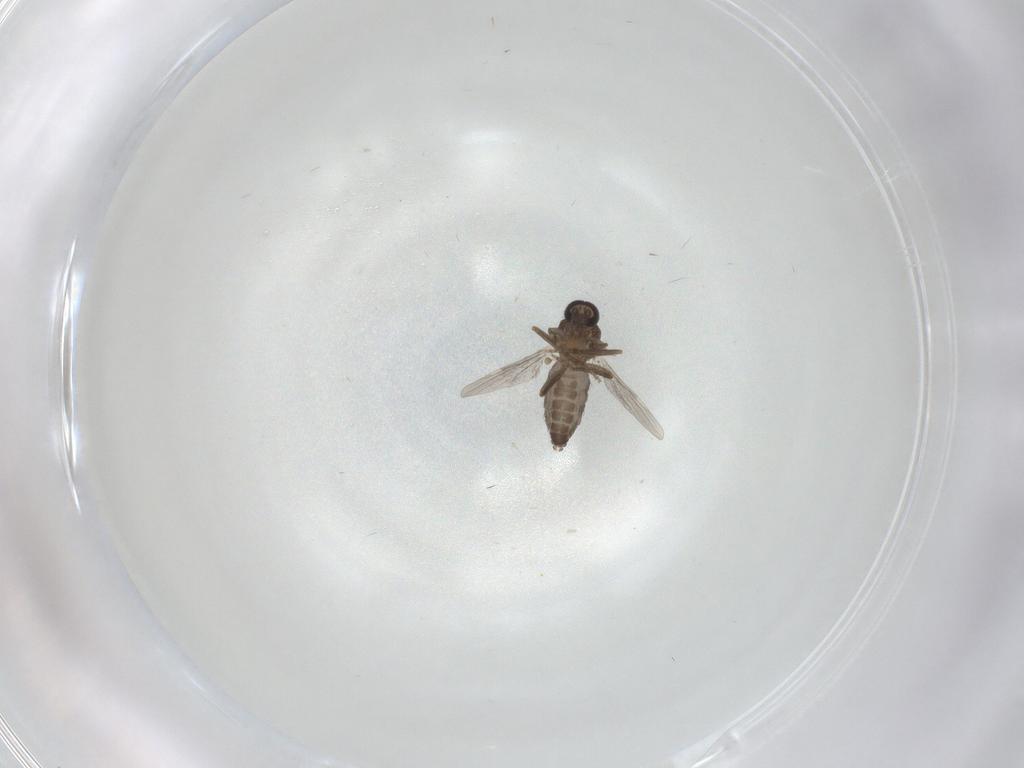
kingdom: Animalia
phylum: Arthropoda
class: Insecta
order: Diptera
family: Ceratopogonidae
